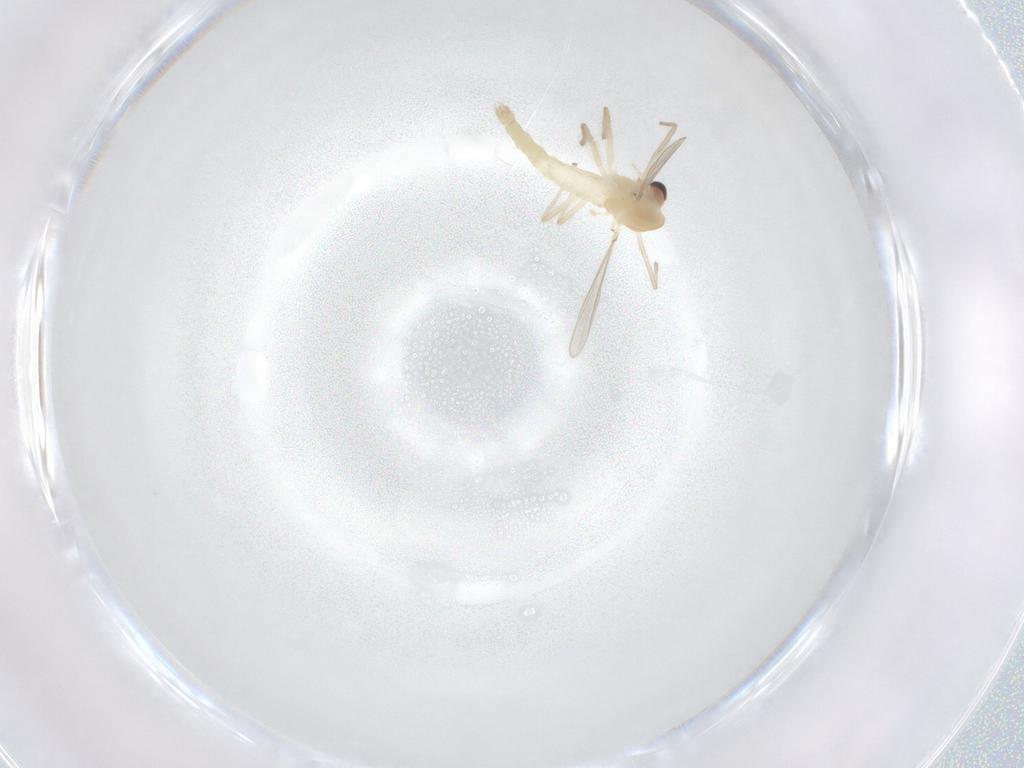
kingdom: Animalia
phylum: Arthropoda
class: Insecta
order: Diptera
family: Chironomidae
